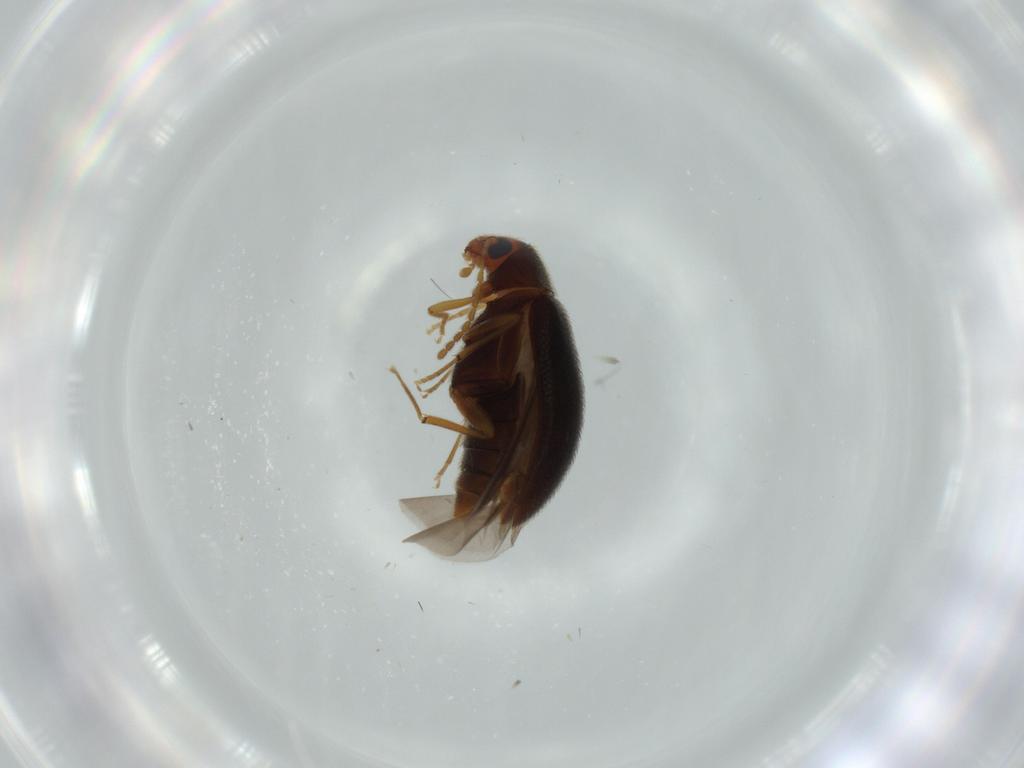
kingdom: Animalia
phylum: Arthropoda
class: Insecta
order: Coleoptera
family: Melandryidae
